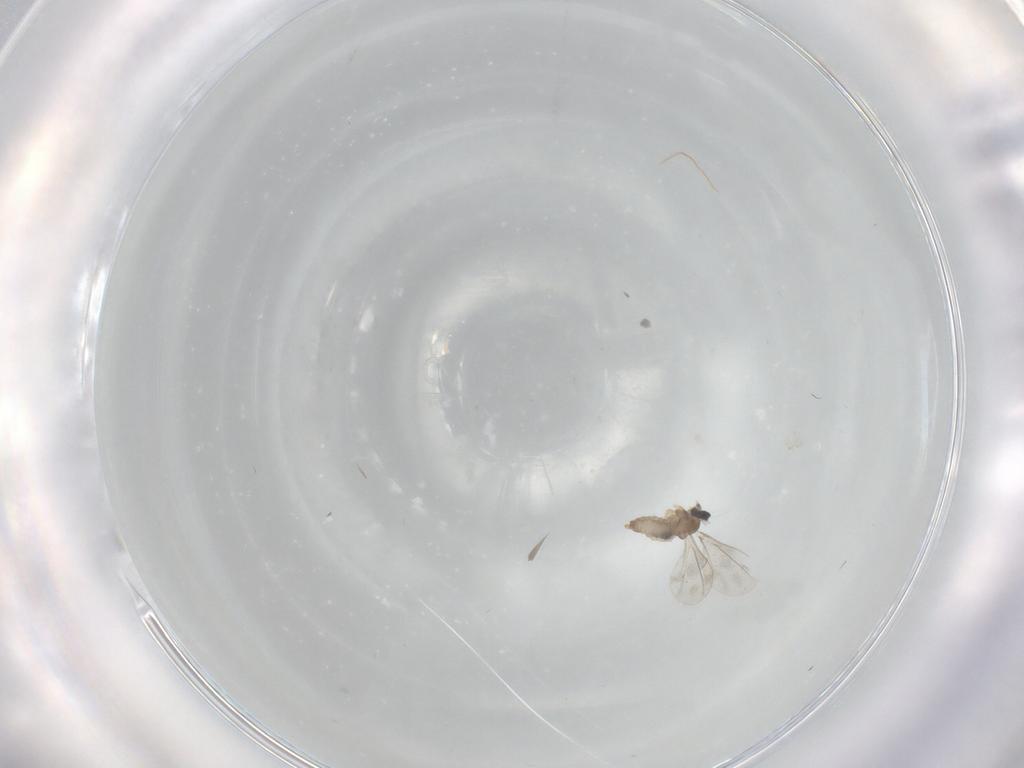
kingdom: Animalia
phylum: Arthropoda
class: Insecta
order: Diptera
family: Cecidomyiidae
